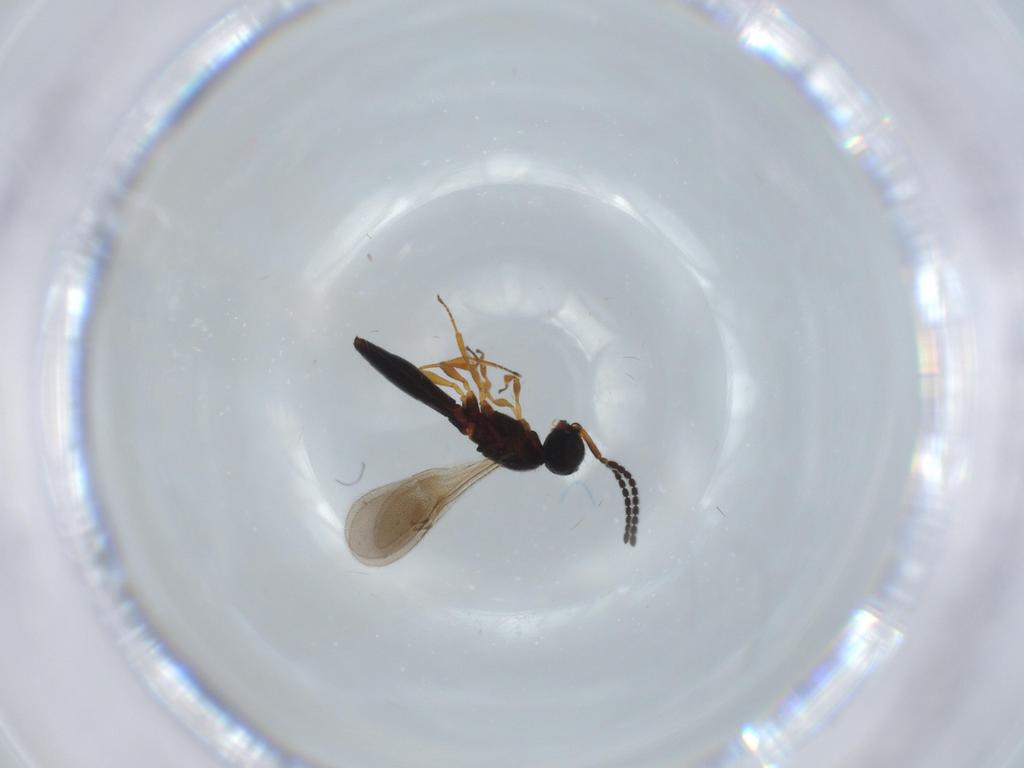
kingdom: Animalia
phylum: Arthropoda
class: Insecta
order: Hymenoptera
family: Scelionidae
